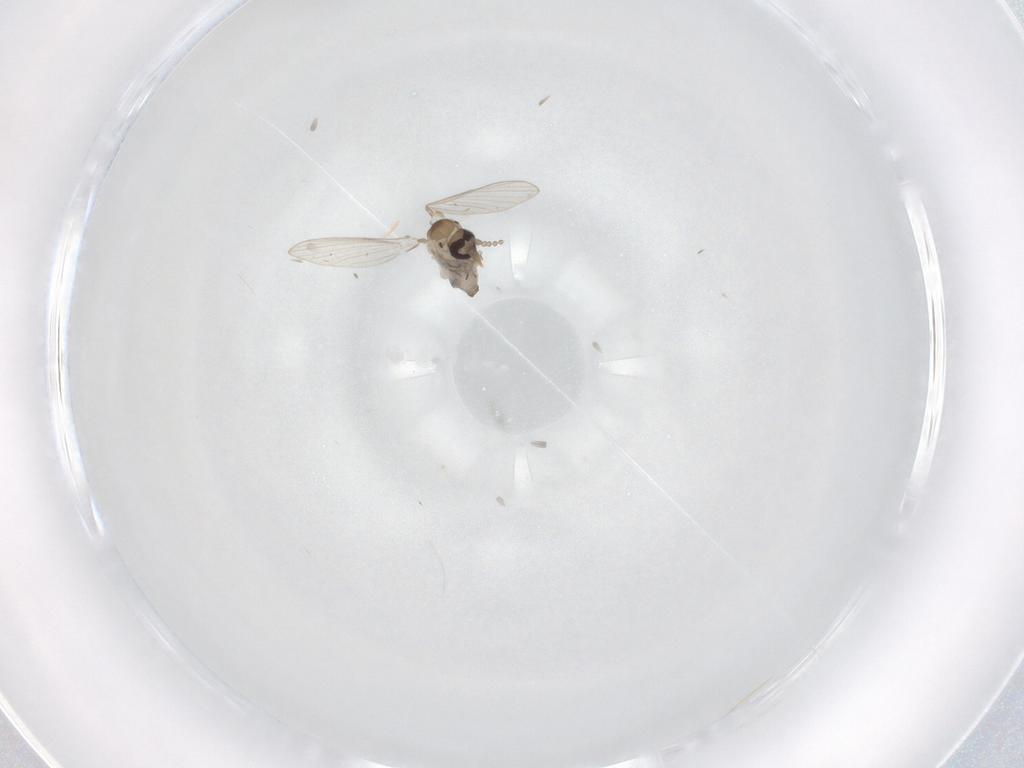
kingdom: Animalia
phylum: Arthropoda
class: Insecta
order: Diptera
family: Psychodidae
